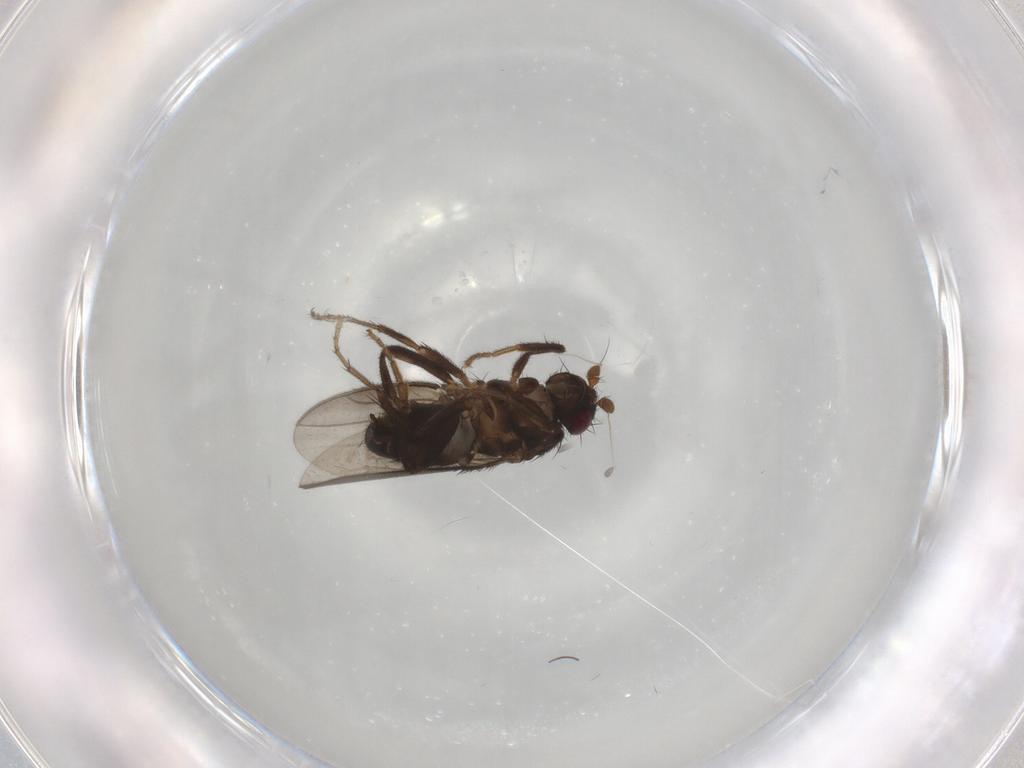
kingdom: Animalia
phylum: Arthropoda
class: Insecta
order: Diptera
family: Sphaeroceridae
